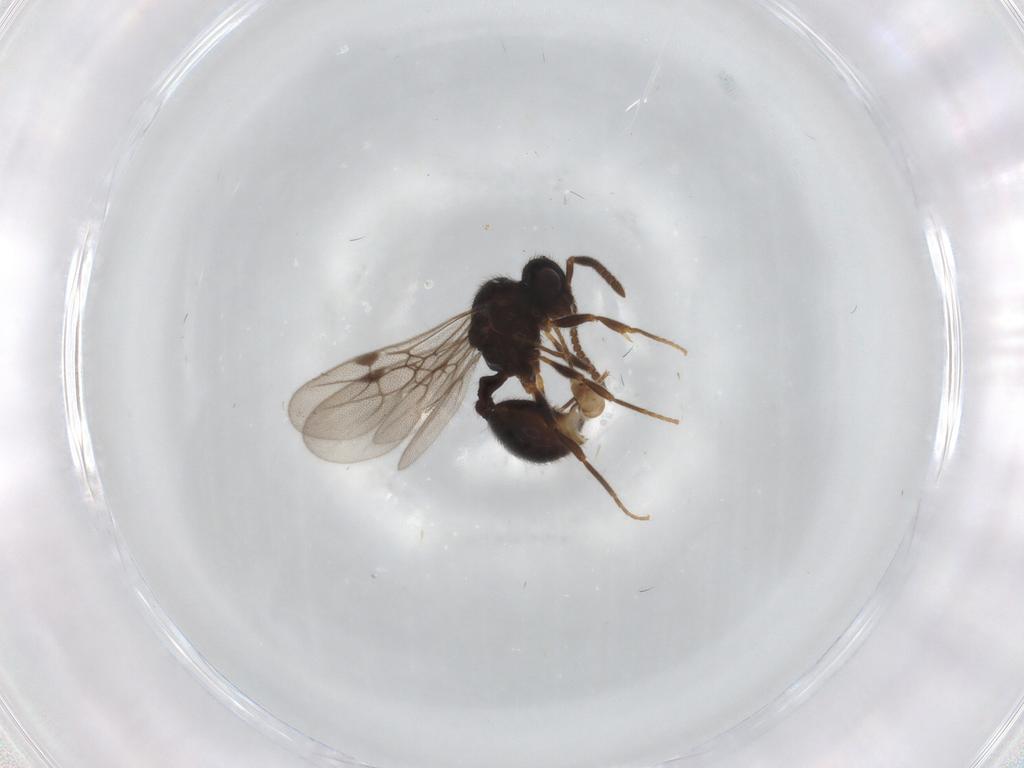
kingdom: Animalia
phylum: Arthropoda
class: Insecta
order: Hymenoptera
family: Formicidae
